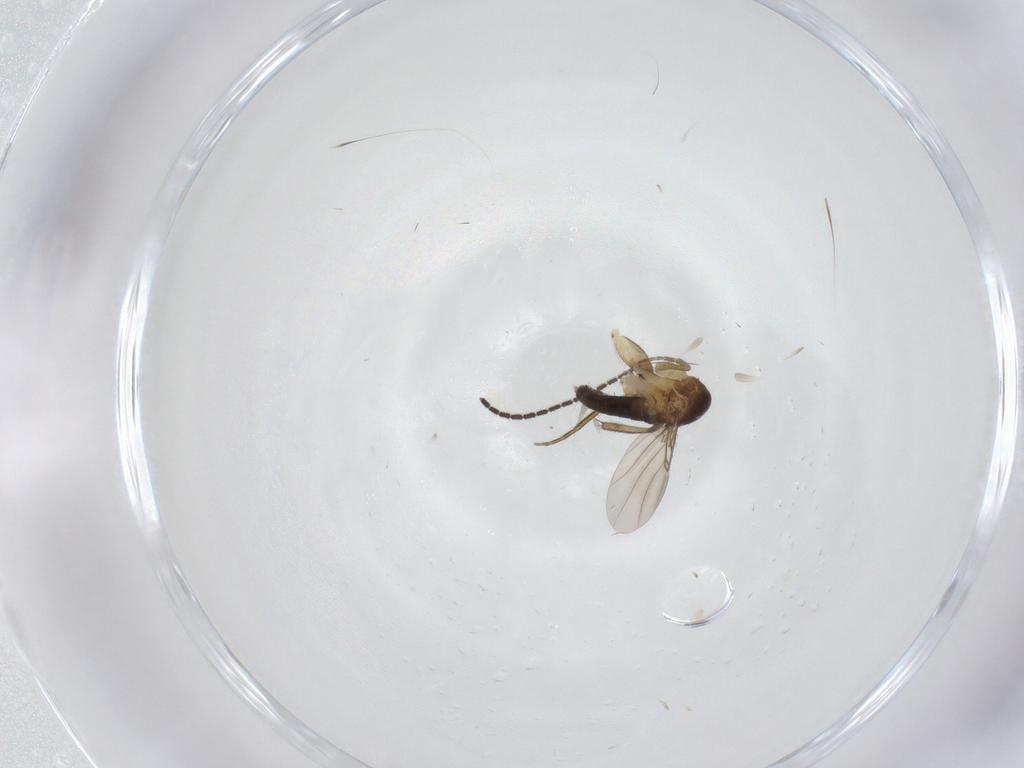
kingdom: Animalia
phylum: Arthropoda
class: Insecta
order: Diptera
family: Phoridae
